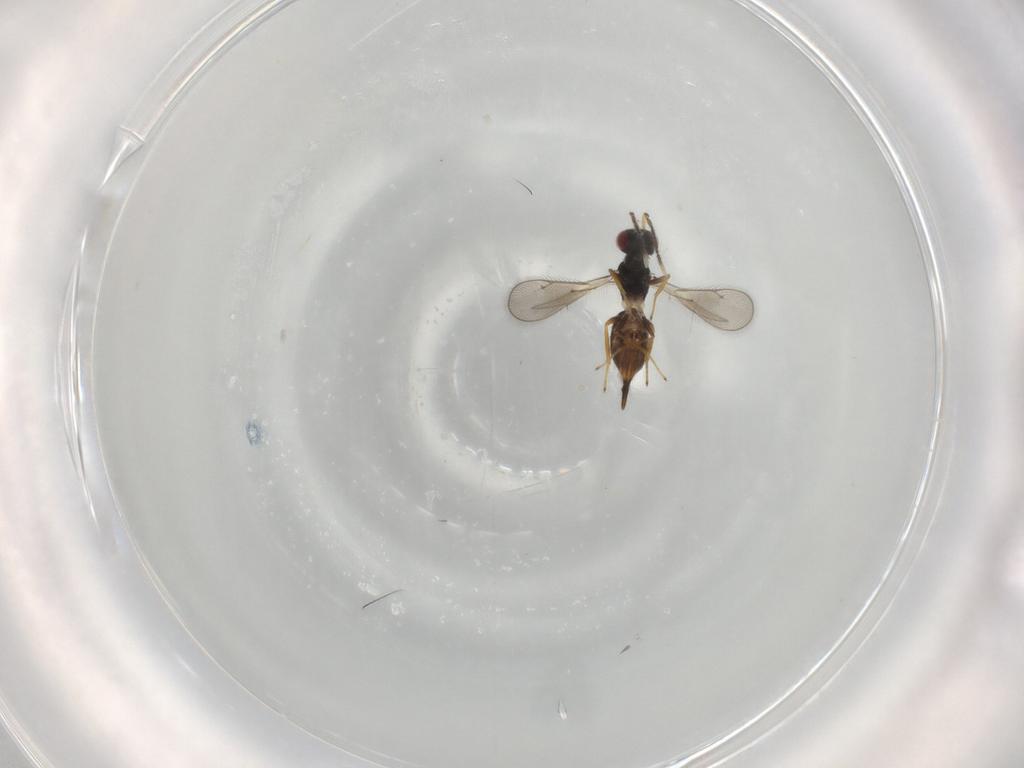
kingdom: Animalia
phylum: Arthropoda
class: Insecta
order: Hymenoptera
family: Eulophidae
